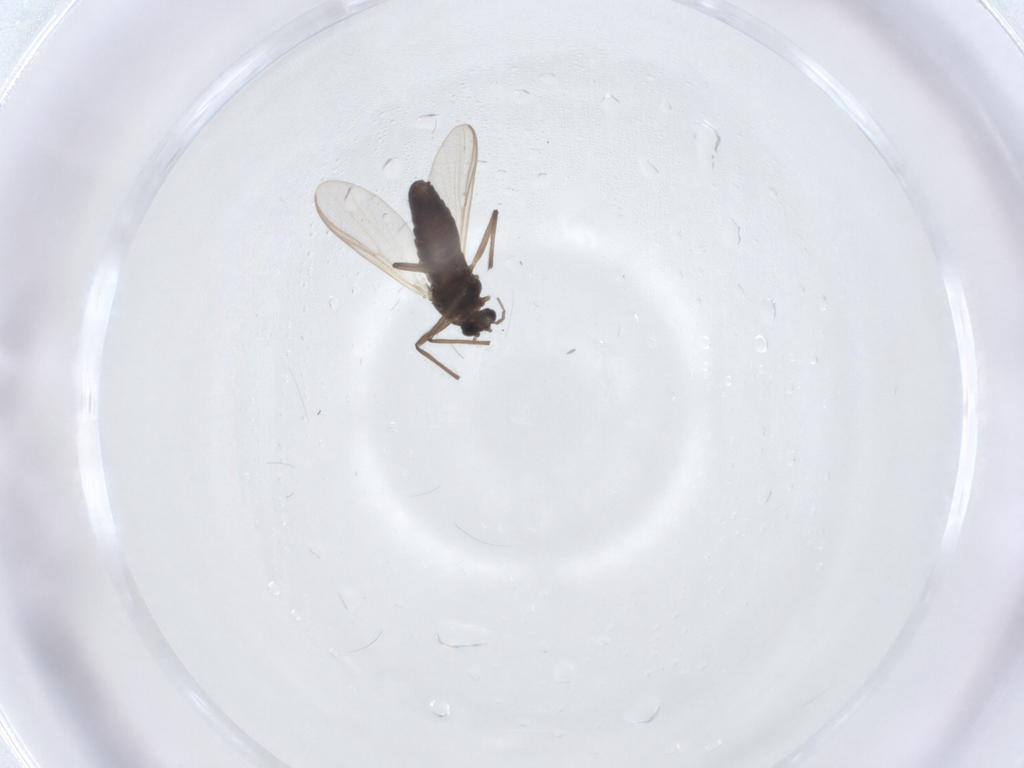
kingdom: Animalia
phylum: Arthropoda
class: Insecta
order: Diptera
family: Chironomidae
